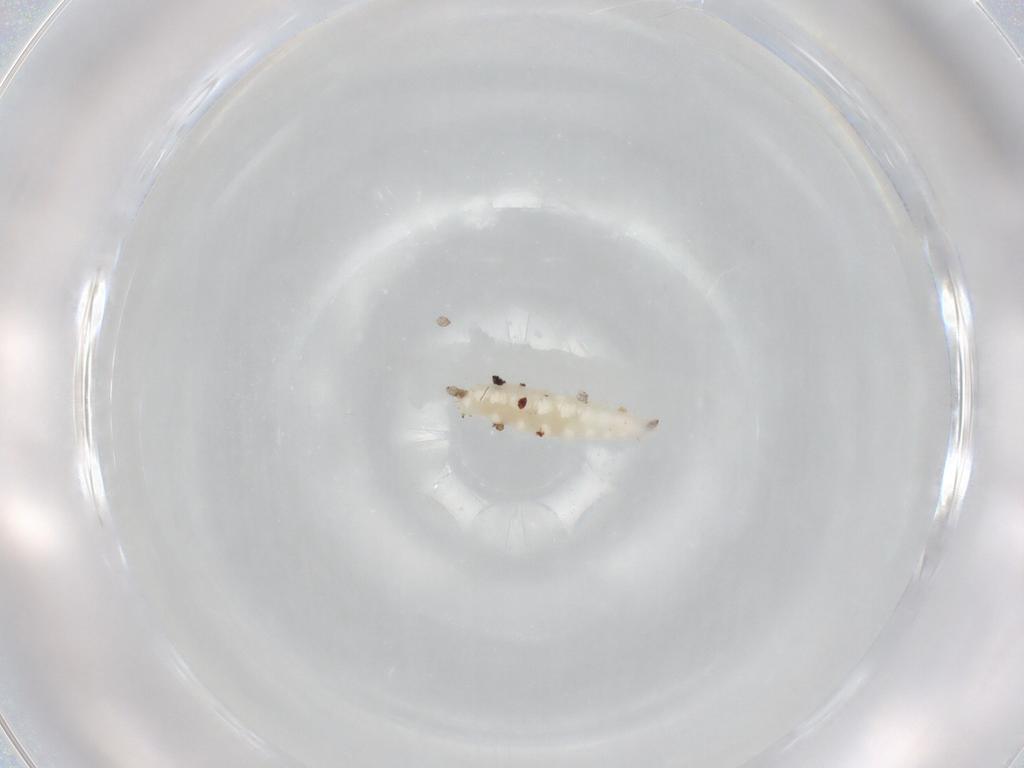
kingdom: Animalia
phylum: Arthropoda
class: Insecta
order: Diptera
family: Chironomidae
